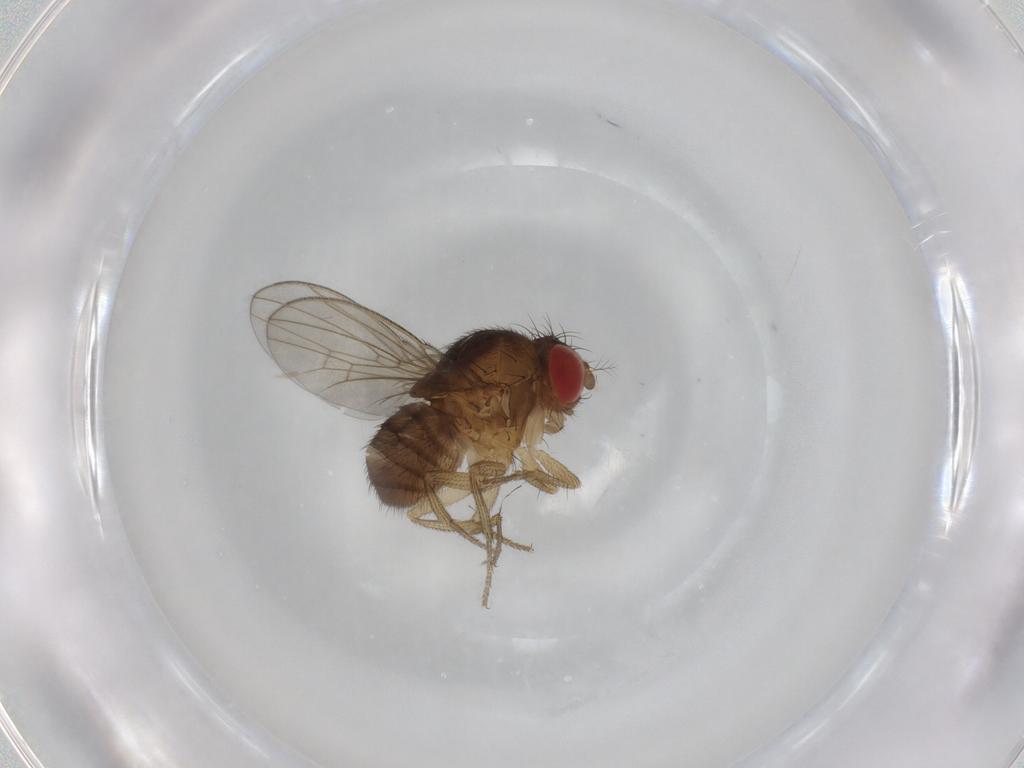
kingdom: Animalia
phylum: Arthropoda
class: Insecta
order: Diptera
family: Drosophilidae
